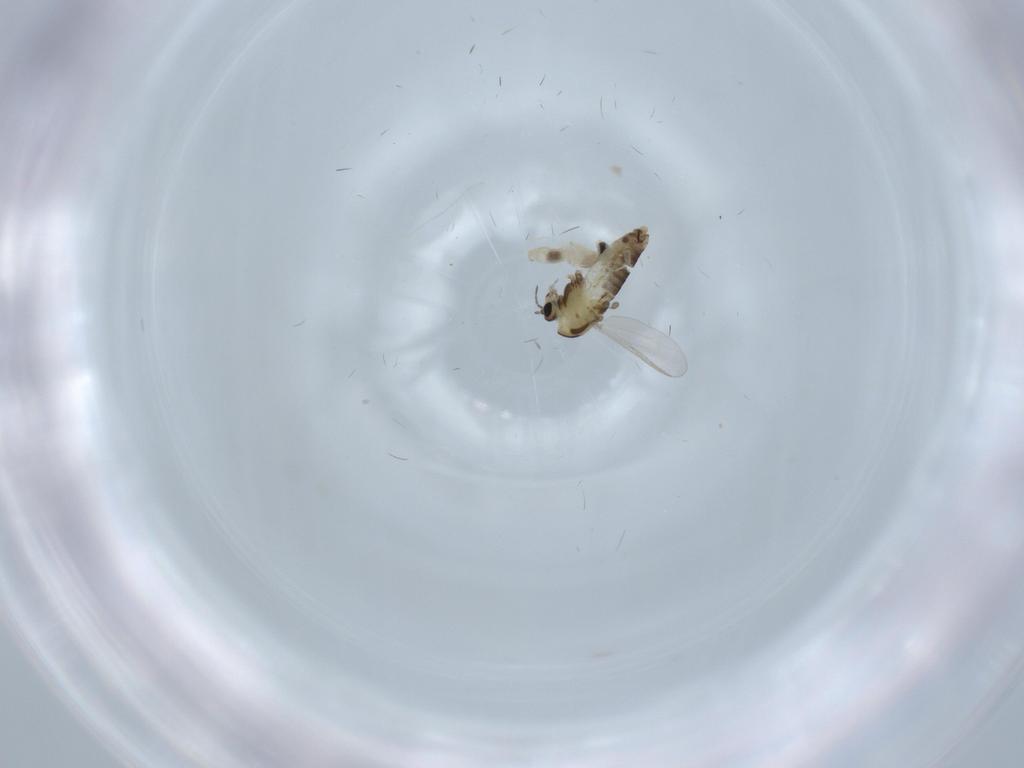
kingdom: Animalia
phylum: Arthropoda
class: Insecta
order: Diptera
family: Chironomidae
